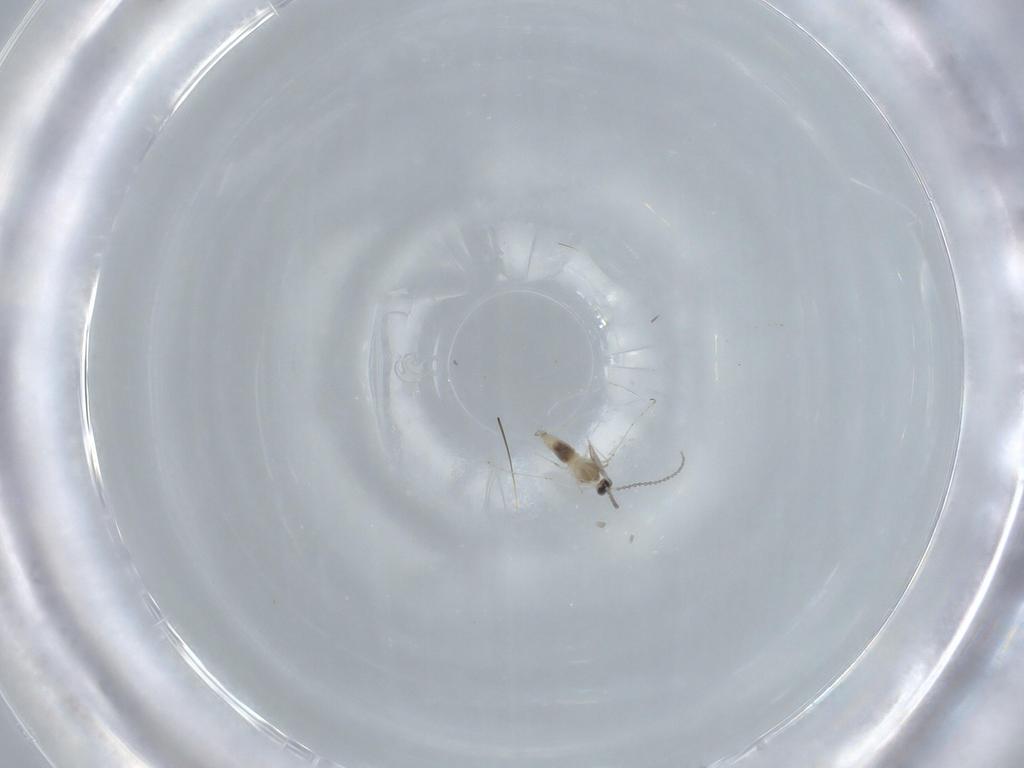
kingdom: Animalia
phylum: Arthropoda
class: Insecta
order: Diptera
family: Cecidomyiidae
